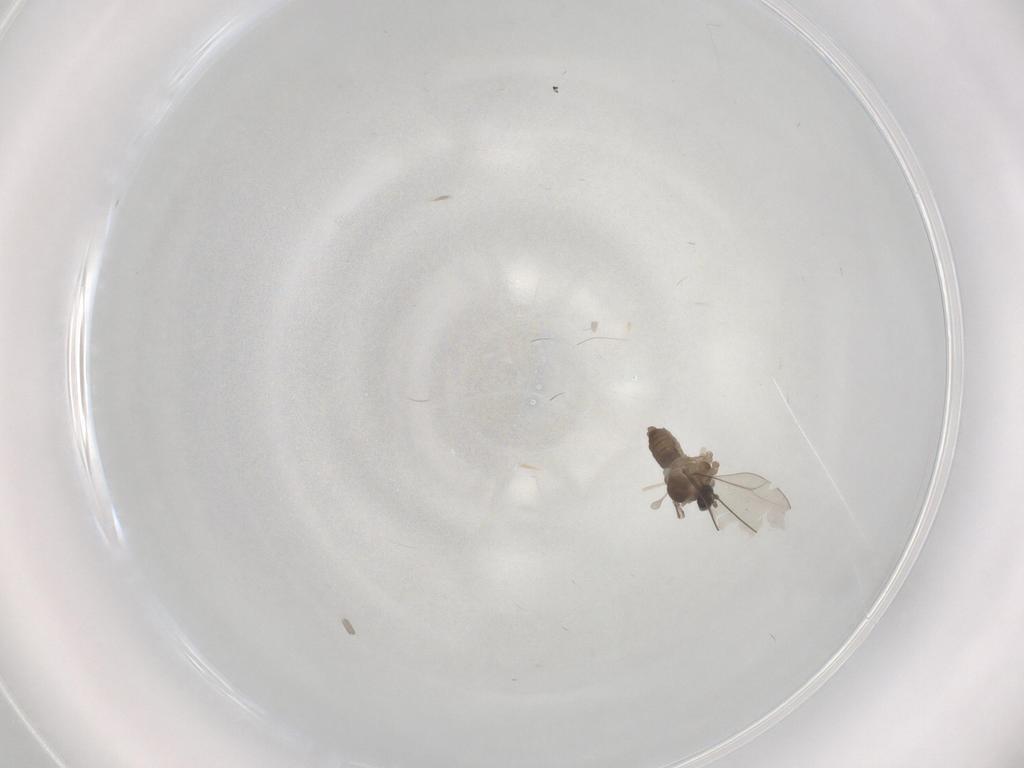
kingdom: Animalia
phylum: Arthropoda
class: Insecta
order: Diptera
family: Cecidomyiidae
